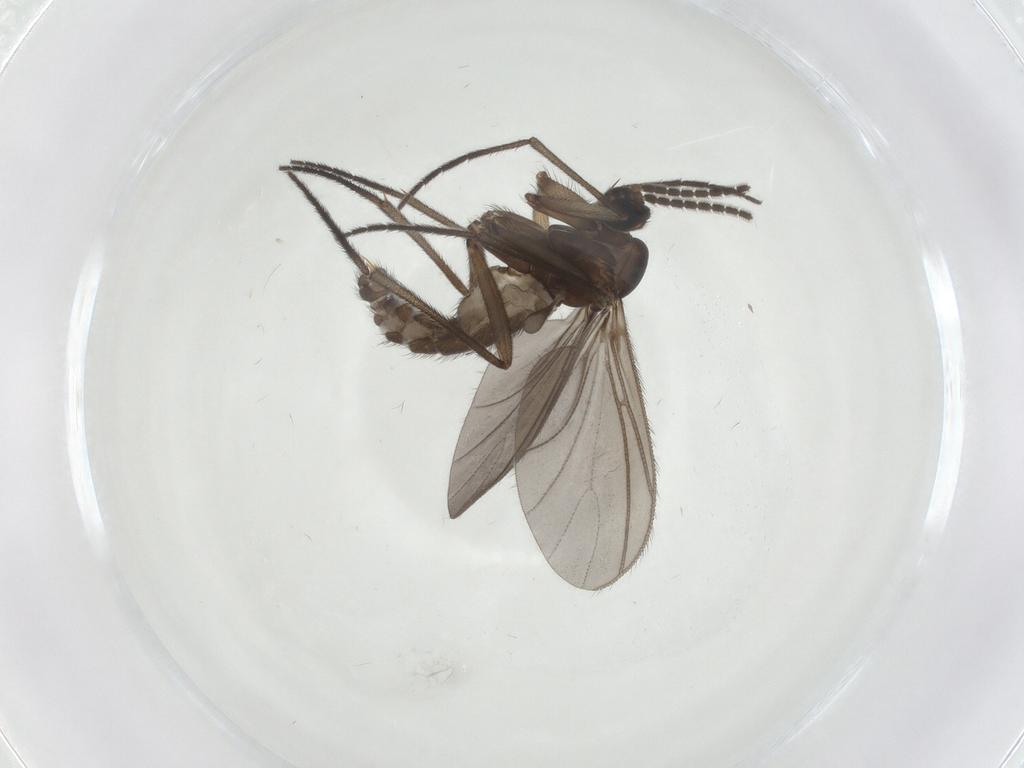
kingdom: Animalia
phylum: Arthropoda
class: Insecta
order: Diptera
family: Sciaridae
